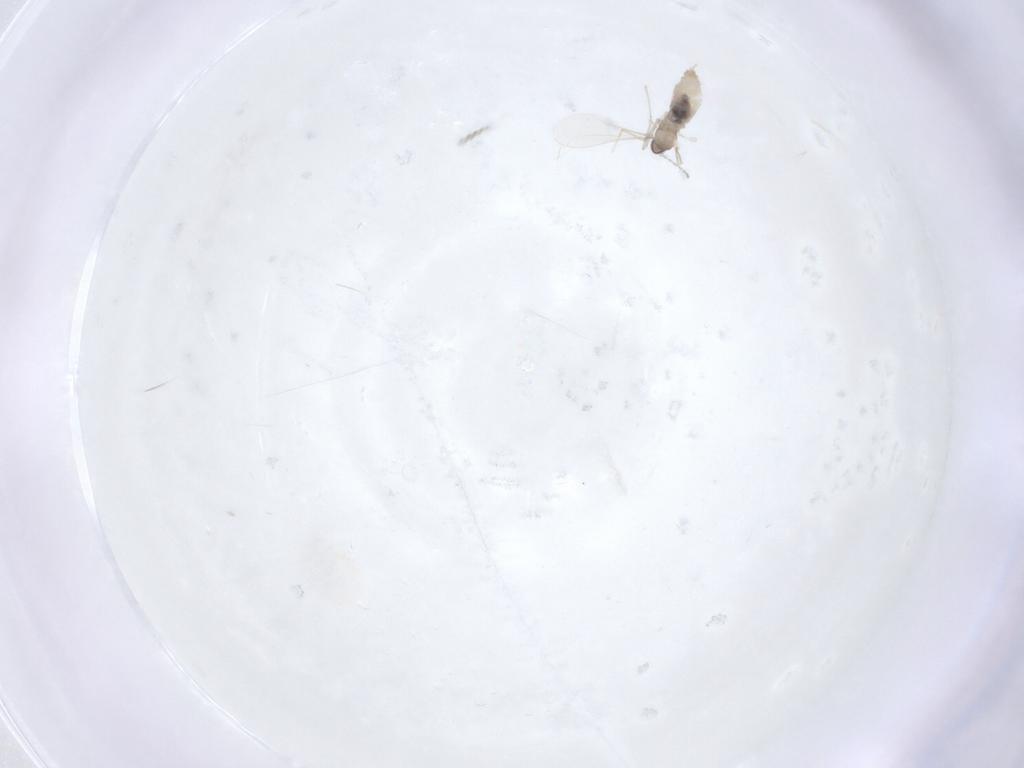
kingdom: Animalia
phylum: Arthropoda
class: Insecta
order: Diptera
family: Cecidomyiidae
